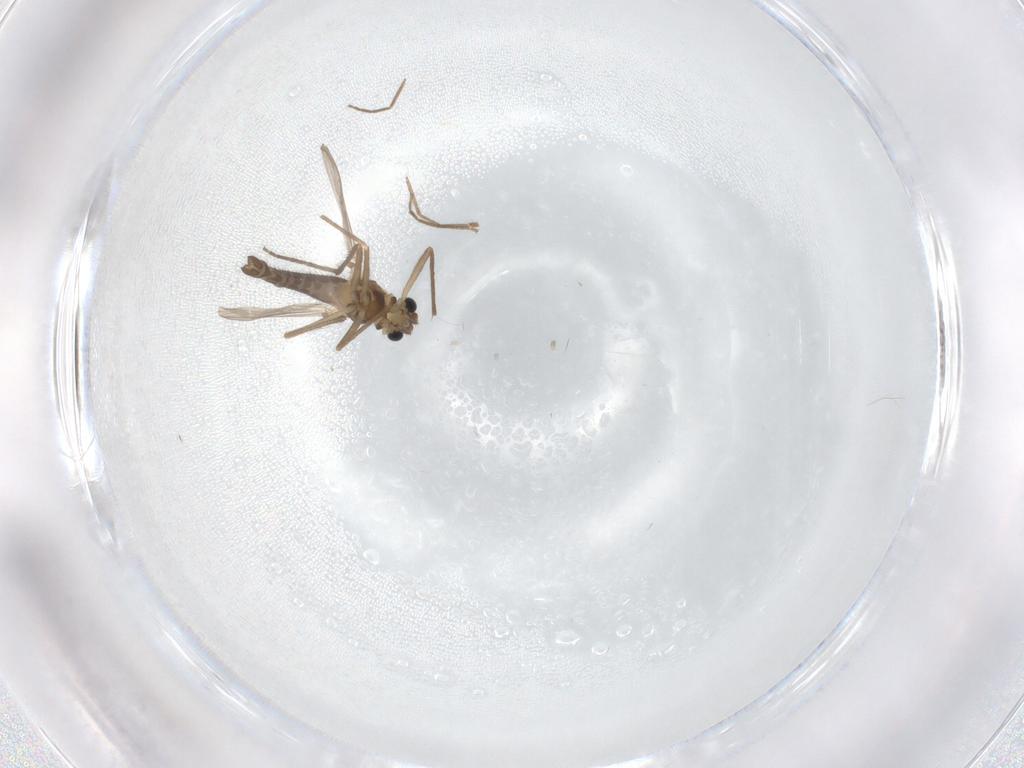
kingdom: Animalia
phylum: Arthropoda
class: Insecta
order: Diptera
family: Chironomidae
